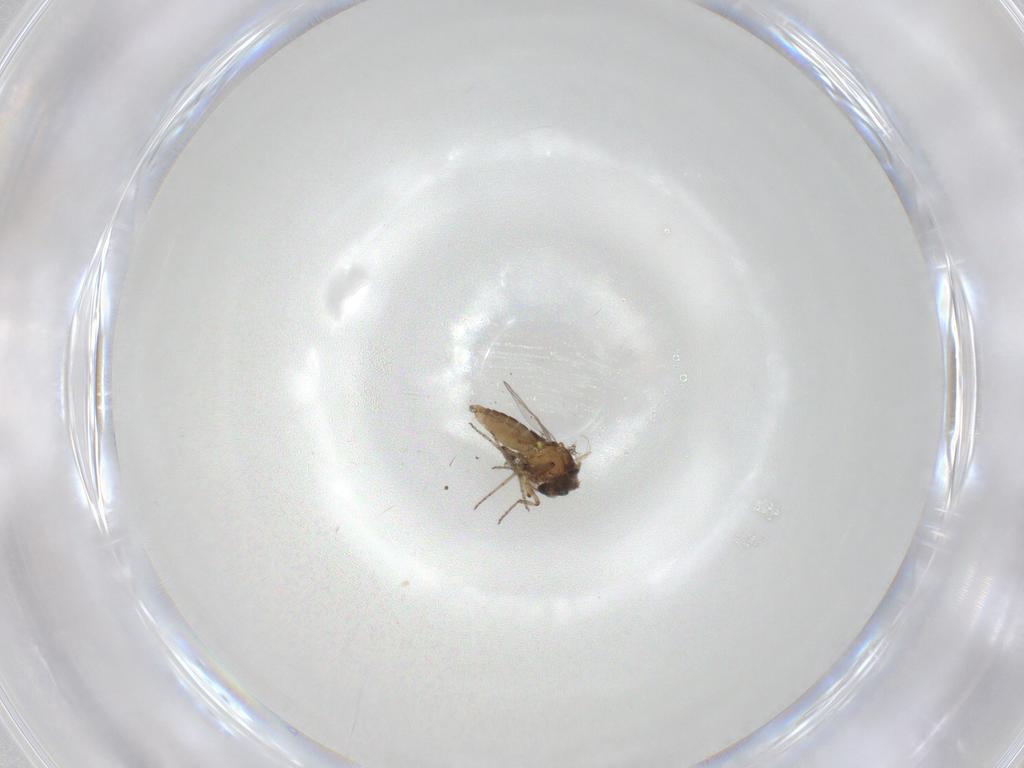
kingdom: Animalia
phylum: Arthropoda
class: Insecta
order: Diptera
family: Ceratopogonidae
